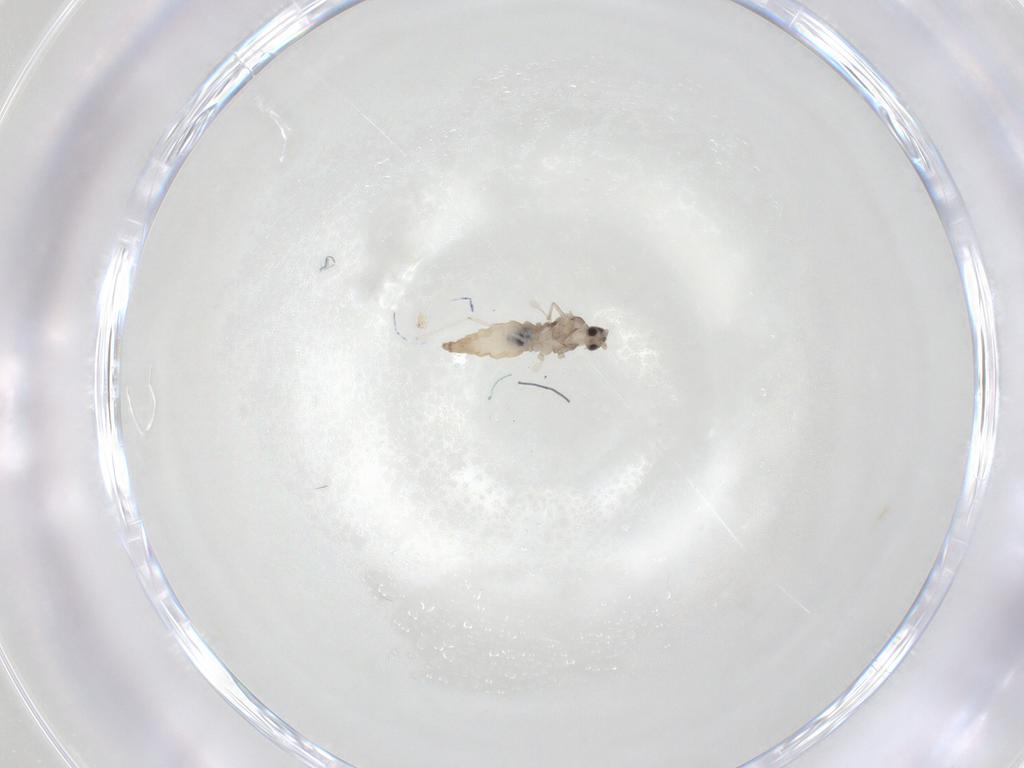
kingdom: Animalia
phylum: Arthropoda
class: Insecta
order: Diptera
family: Cecidomyiidae
